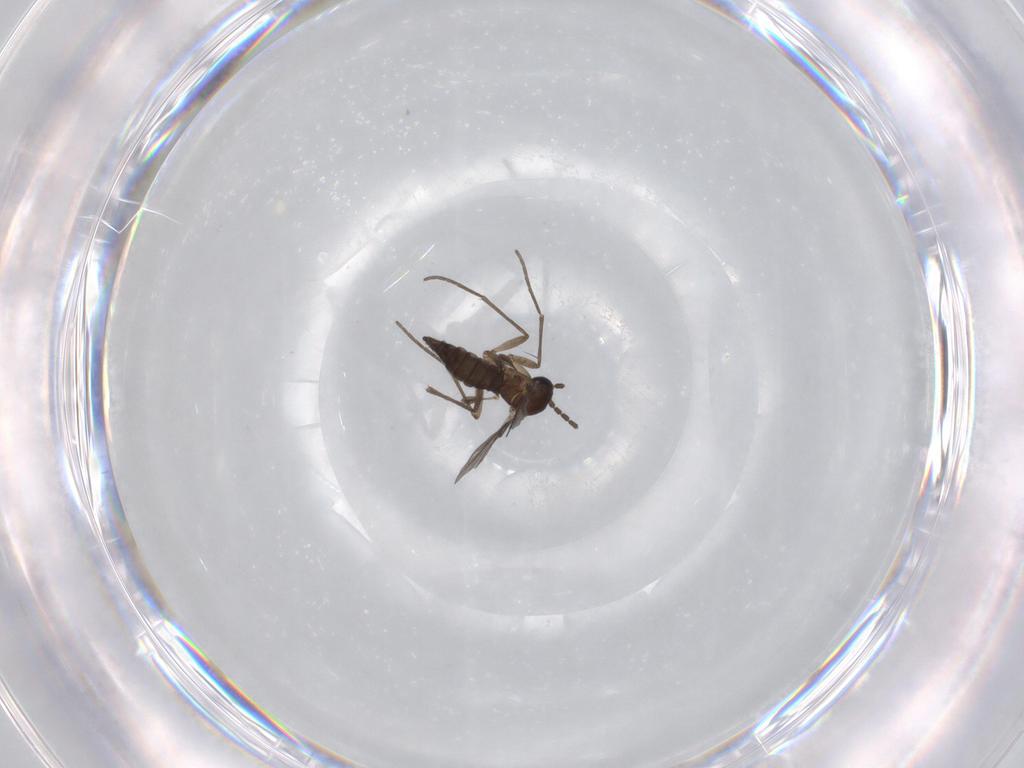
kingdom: Animalia
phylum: Arthropoda
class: Insecta
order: Diptera
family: Sciaridae
